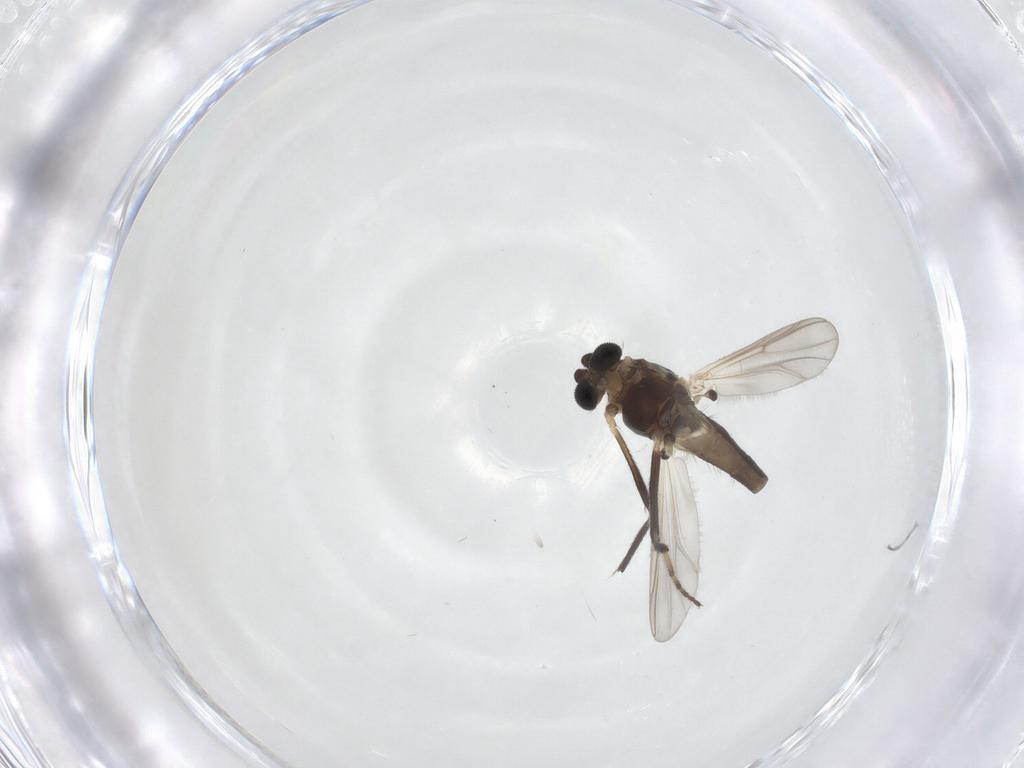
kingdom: Animalia
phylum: Arthropoda
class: Insecta
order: Diptera
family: Chironomidae
